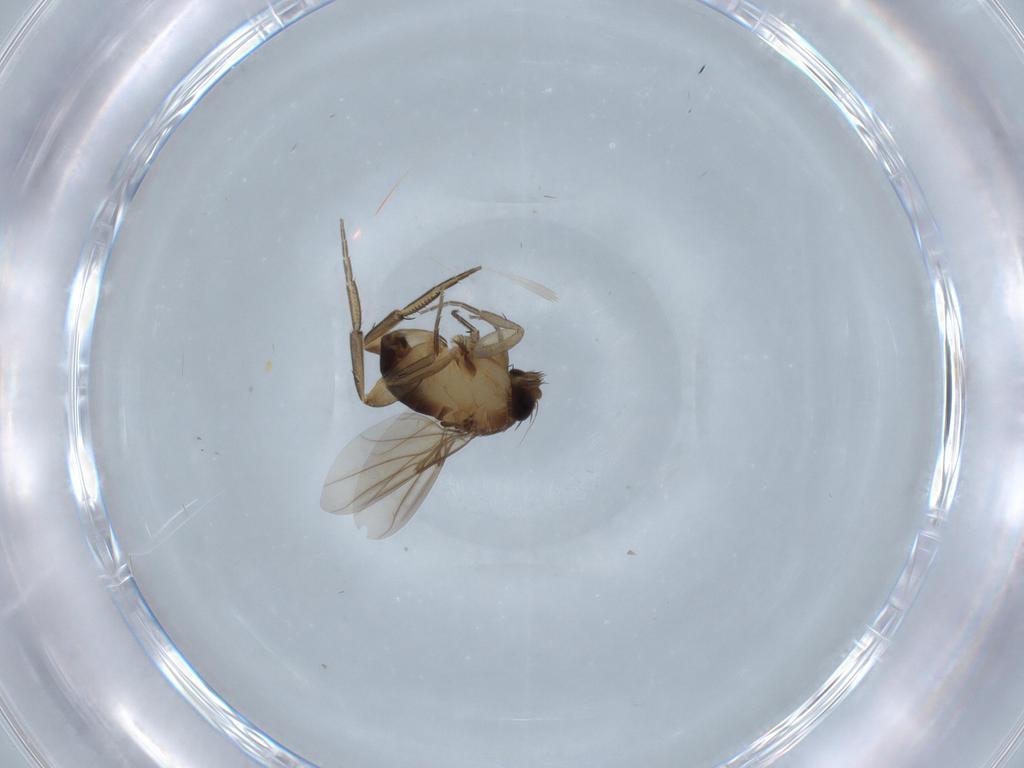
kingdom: Animalia
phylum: Arthropoda
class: Insecta
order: Diptera
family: Phoridae
